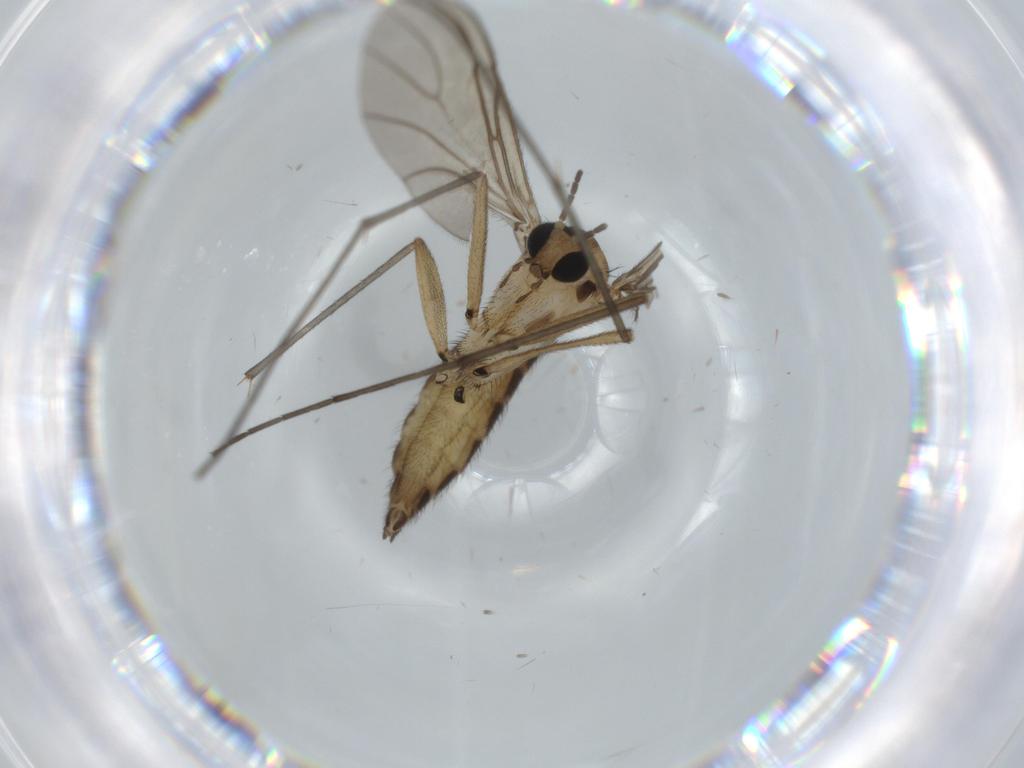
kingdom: Animalia
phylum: Arthropoda
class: Insecta
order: Diptera
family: Sciaridae
